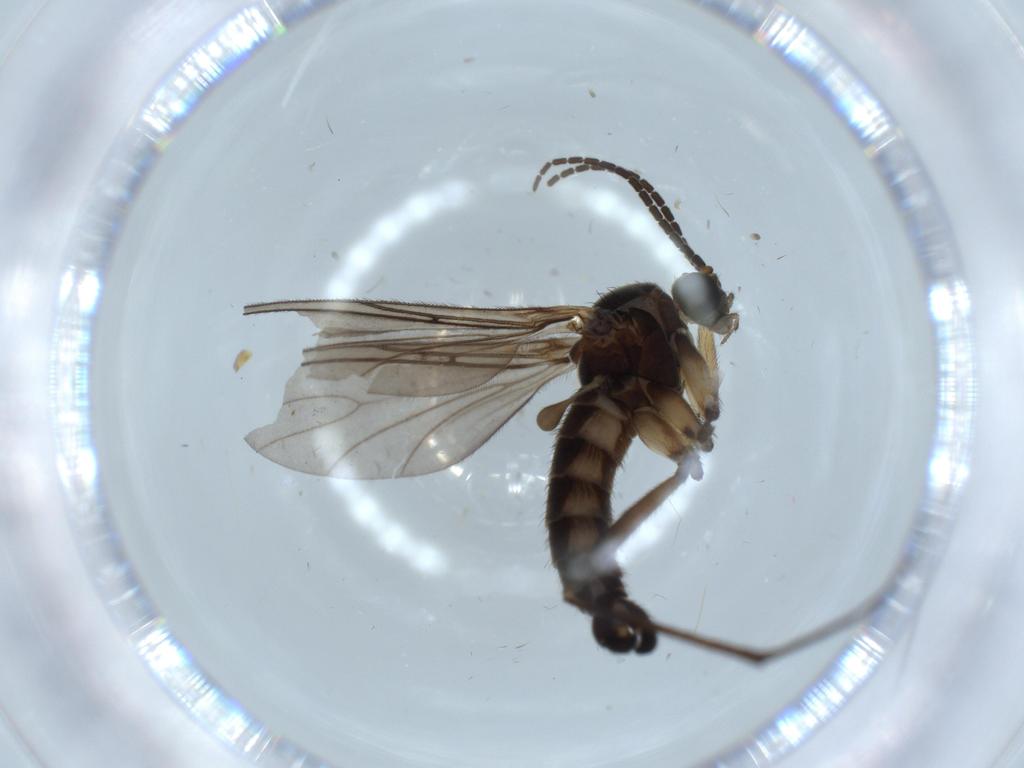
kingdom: Animalia
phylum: Arthropoda
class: Insecta
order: Diptera
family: Sciaridae
